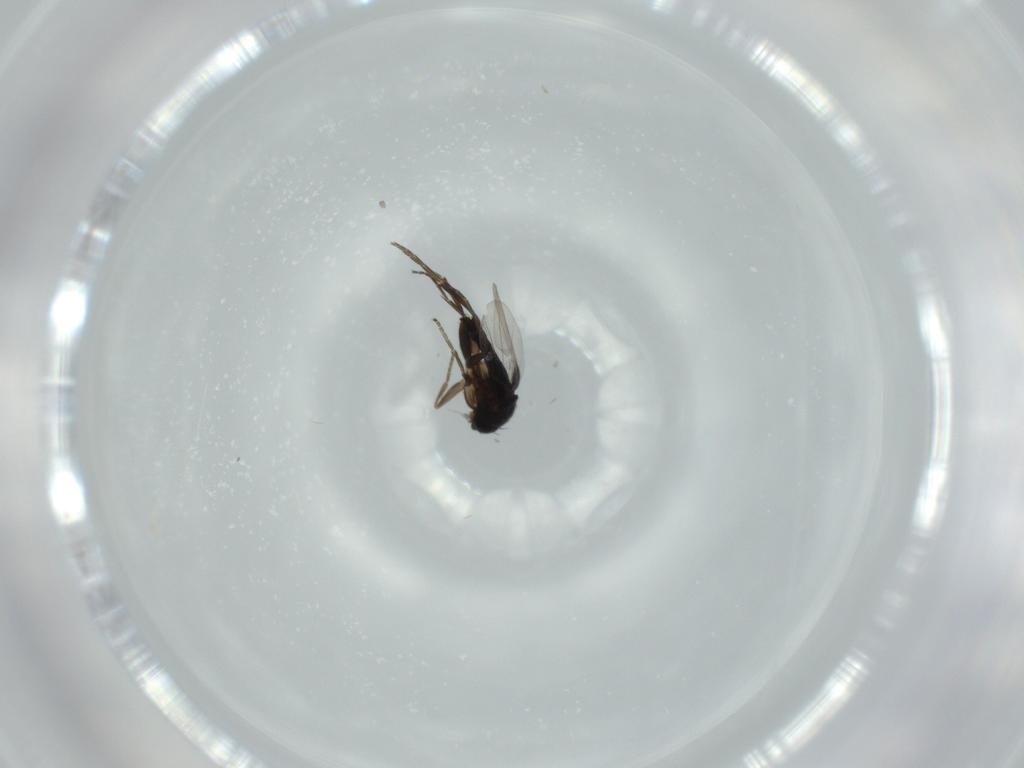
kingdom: Animalia
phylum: Arthropoda
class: Insecta
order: Diptera
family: Phoridae
